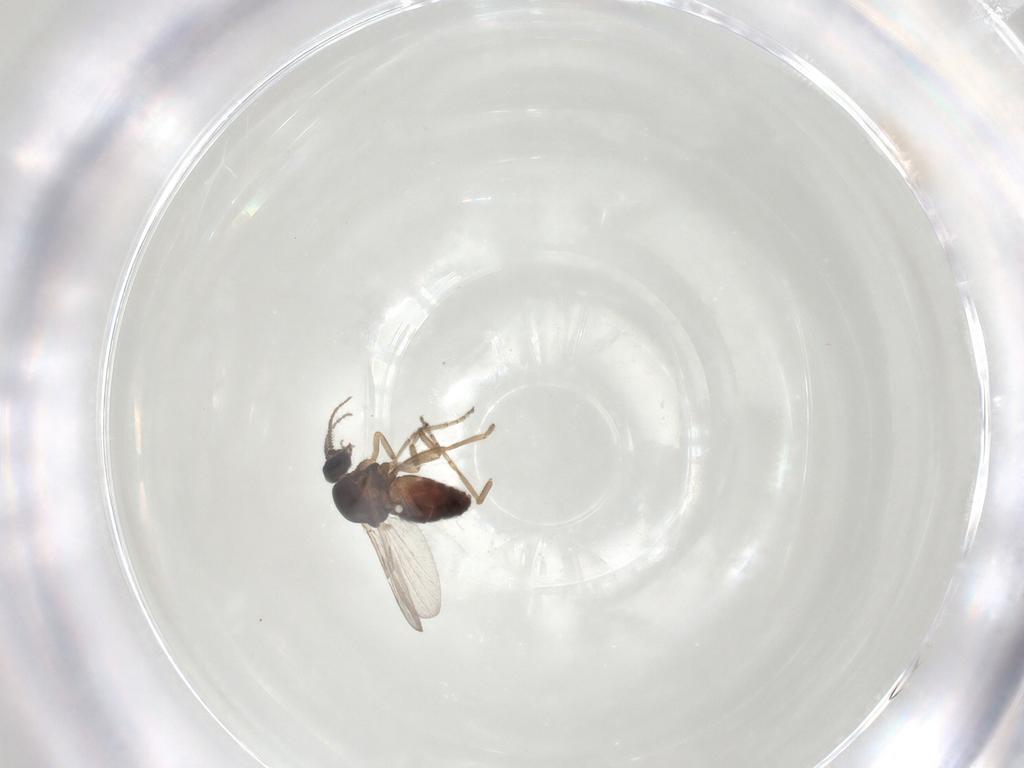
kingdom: Animalia
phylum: Arthropoda
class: Insecta
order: Diptera
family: Ceratopogonidae
